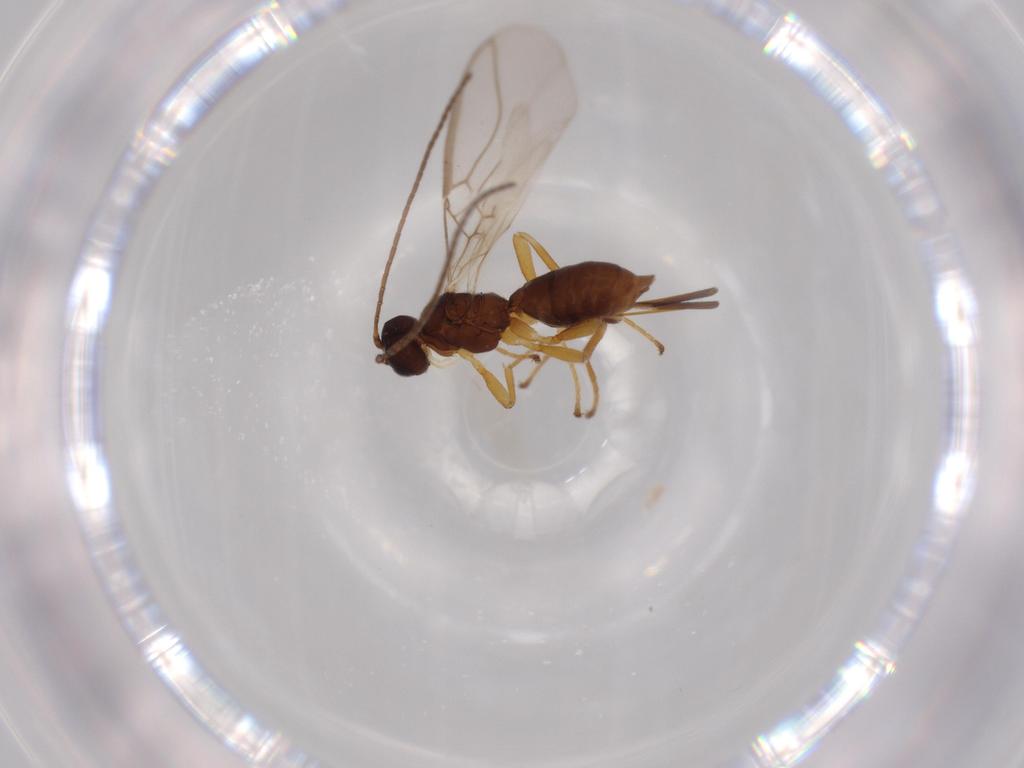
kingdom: Animalia
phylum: Arthropoda
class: Insecta
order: Hymenoptera
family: Braconidae
